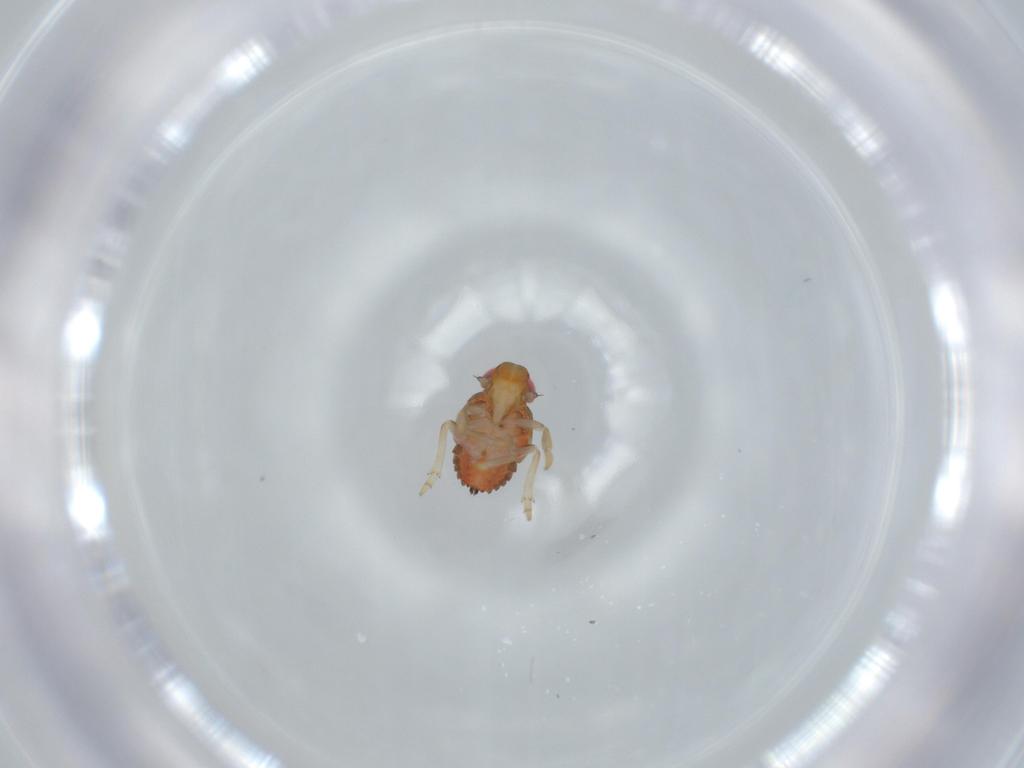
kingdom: Animalia
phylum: Arthropoda
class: Insecta
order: Hemiptera
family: Issidae
